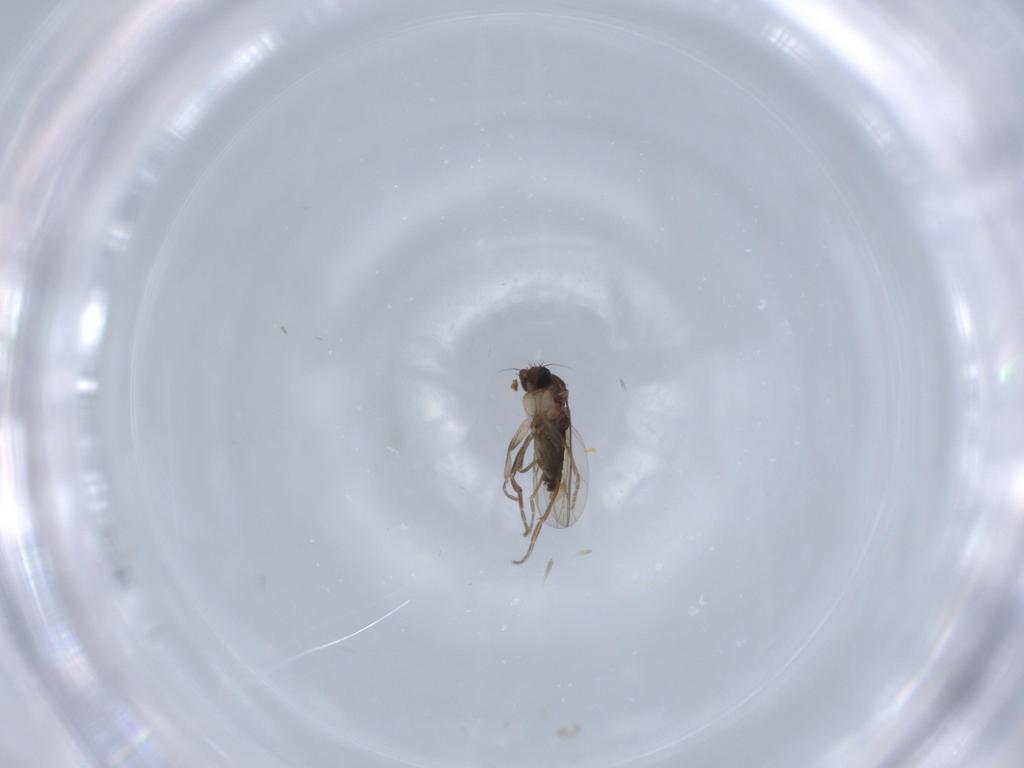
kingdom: Animalia
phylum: Arthropoda
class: Insecta
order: Diptera
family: Phoridae
